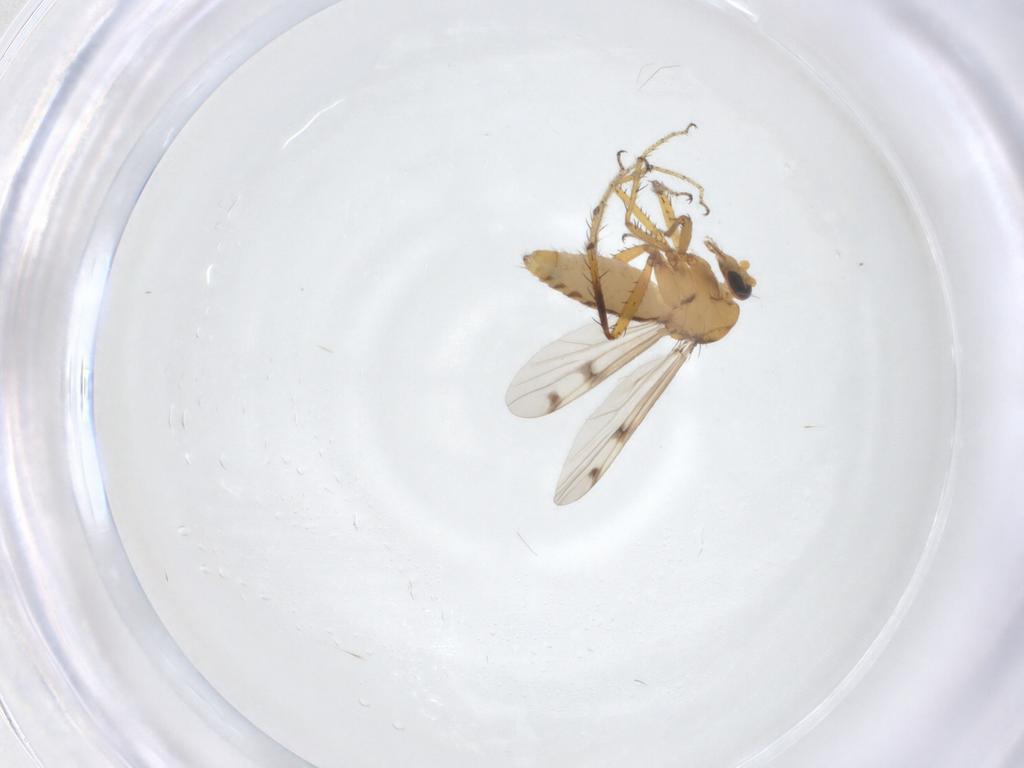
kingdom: Animalia
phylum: Arthropoda
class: Insecta
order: Diptera
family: Ceratopogonidae
